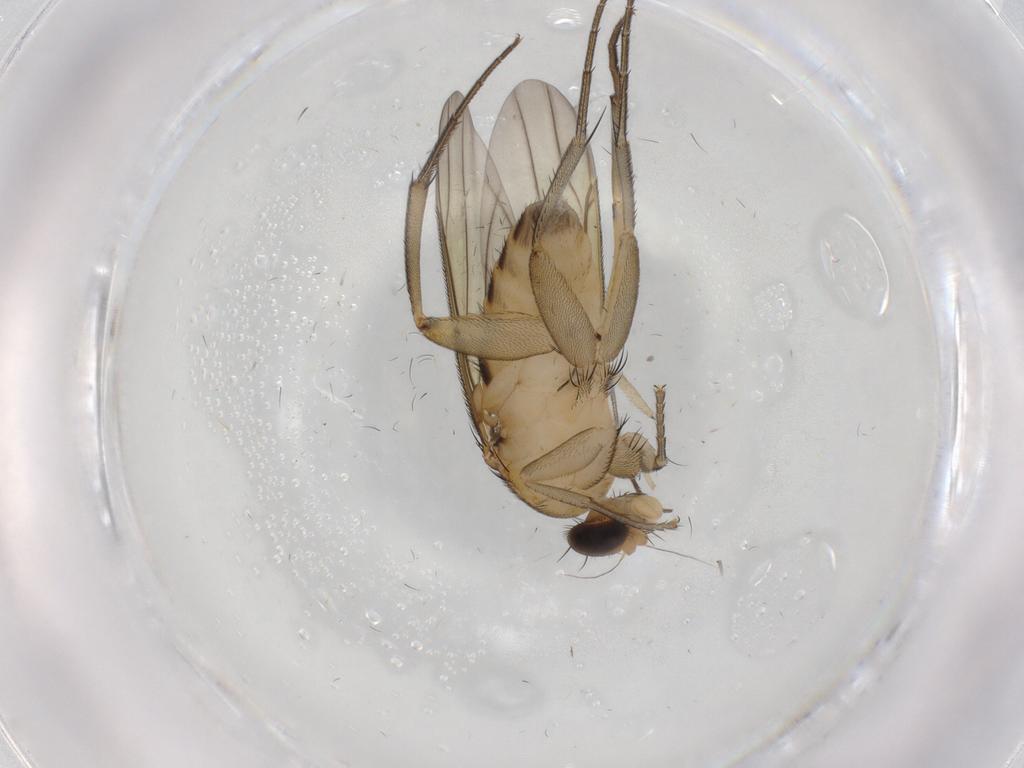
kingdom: Animalia
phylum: Arthropoda
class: Insecta
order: Diptera
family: Phoridae
